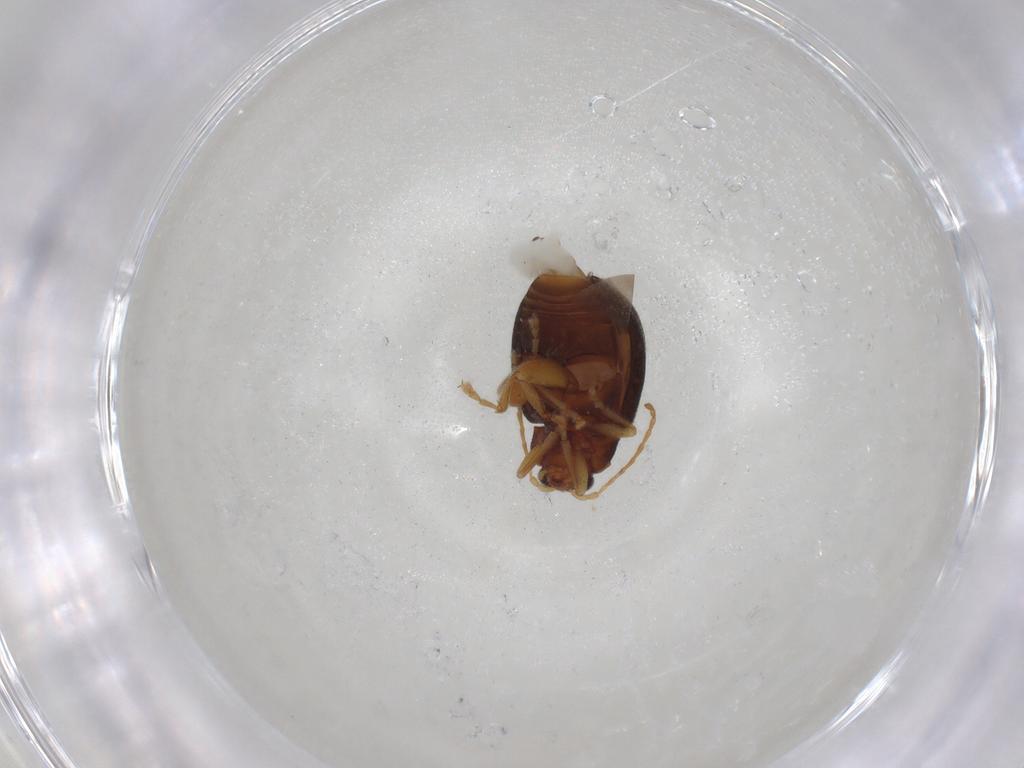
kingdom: Animalia
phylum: Arthropoda
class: Insecta
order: Coleoptera
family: Chrysomelidae
